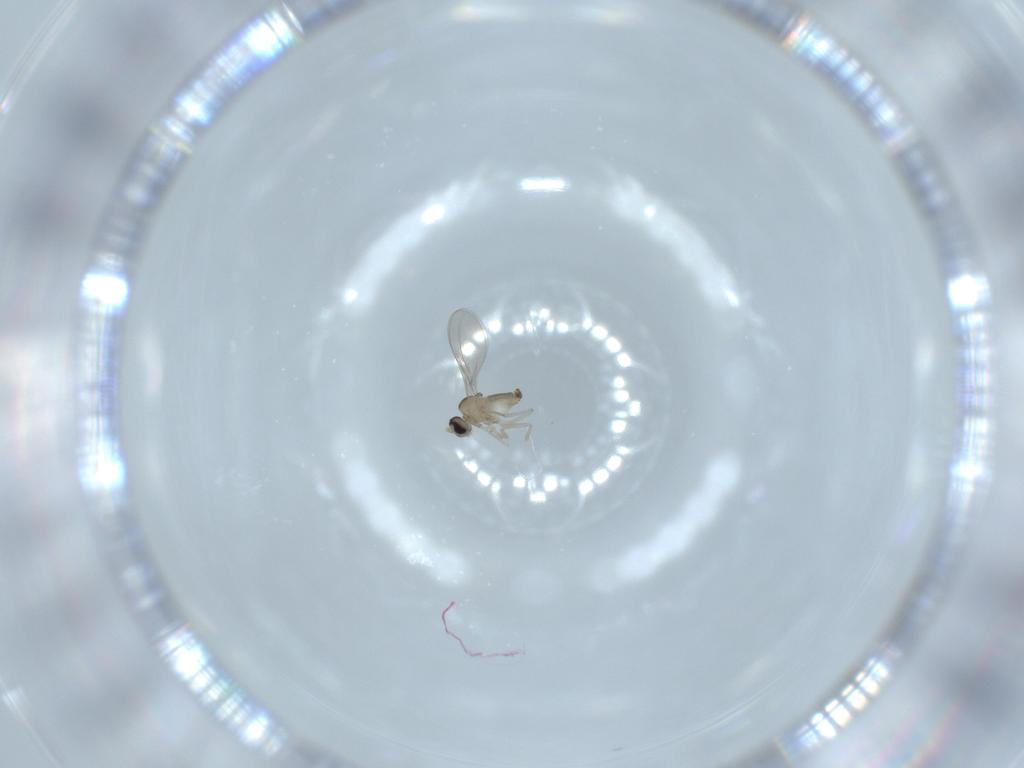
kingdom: Animalia
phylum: Arthropoda
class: Insecta
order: Diptera
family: Cecidomyiidae
